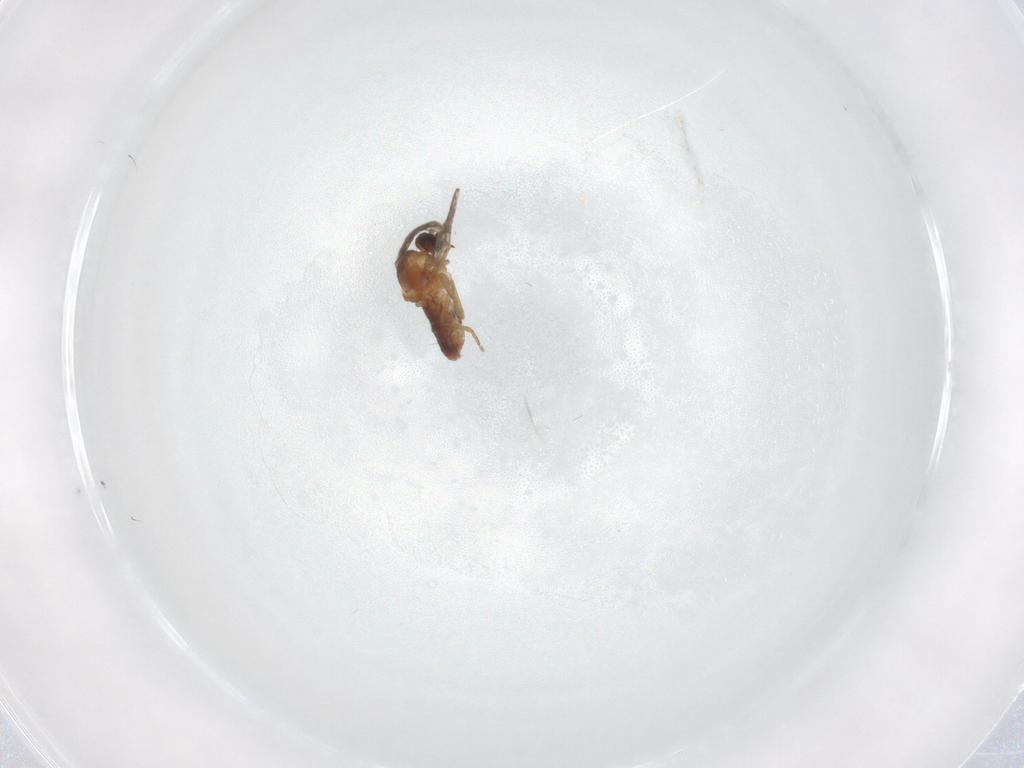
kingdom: Animalia
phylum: Arthropoda
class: Insecta
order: Diptera
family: Ceratopogonidae
